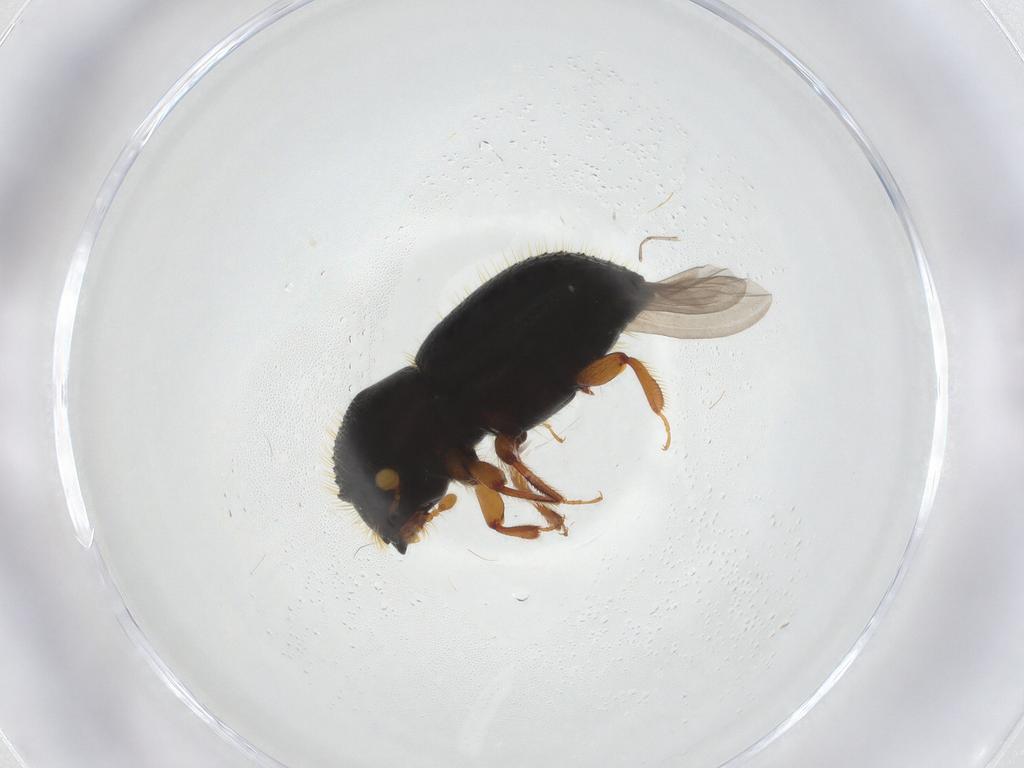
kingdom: Animalia
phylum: Arthropoda
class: Insecta
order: Coleoptera
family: Curculionidae
